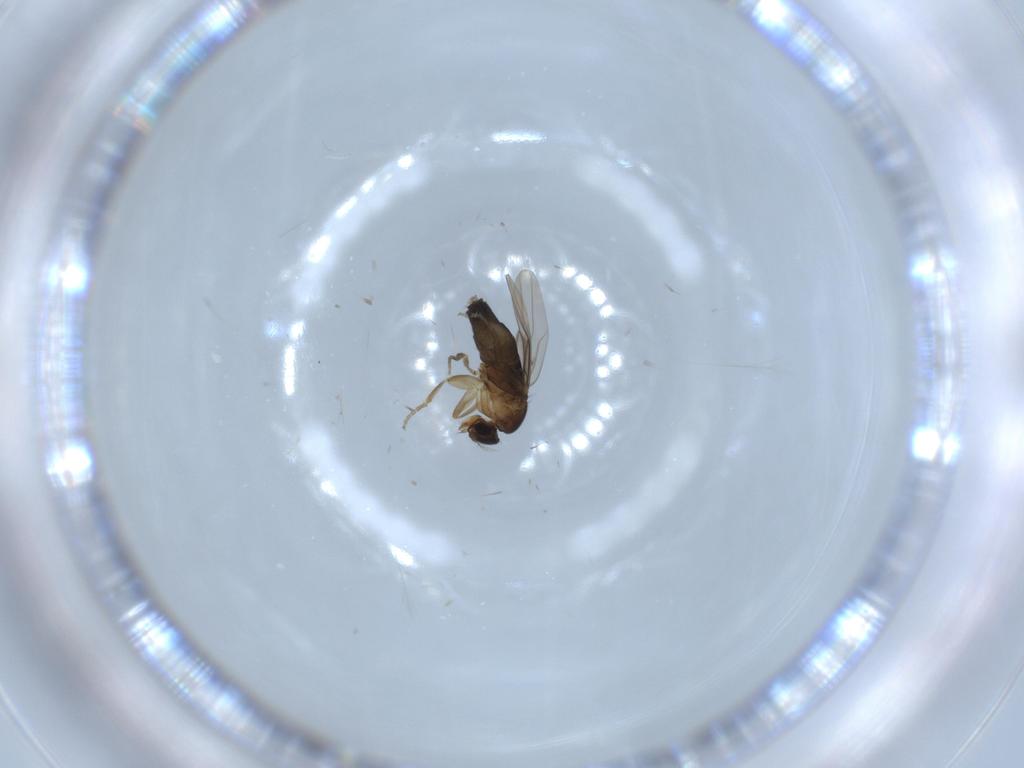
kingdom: Animalia
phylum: Arthropoda
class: Insecta
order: Diptera
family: Phoridae
